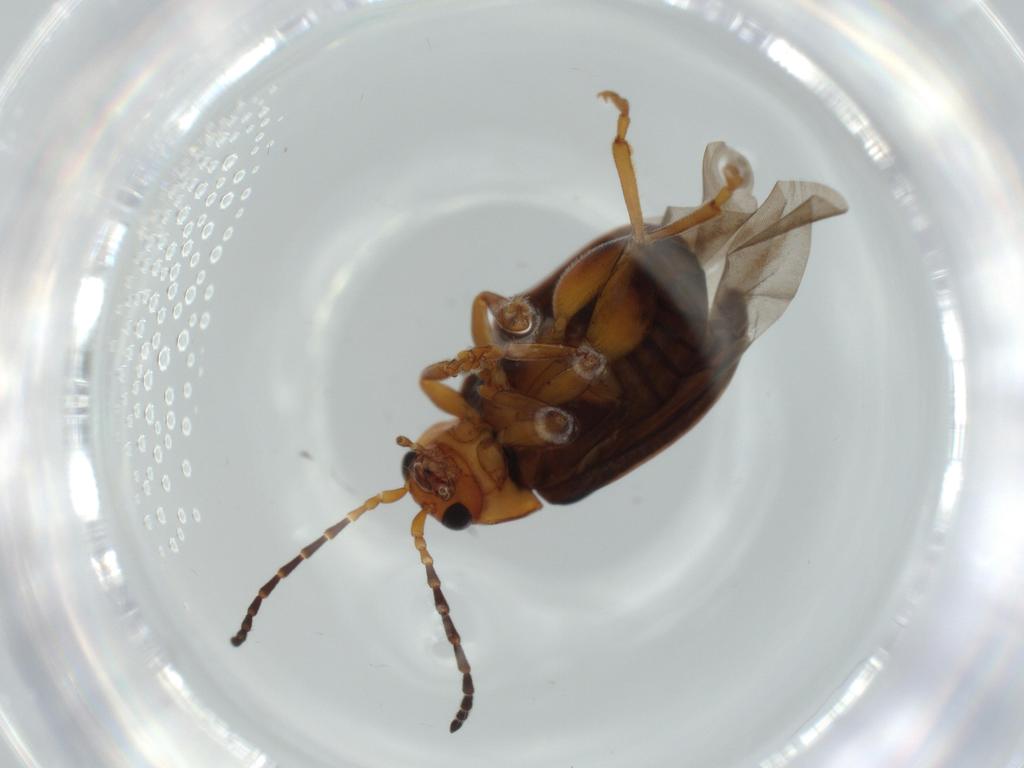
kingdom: Animalia
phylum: Arthropoda
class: Insecta
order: Coleoptera
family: Chrysomelidae
